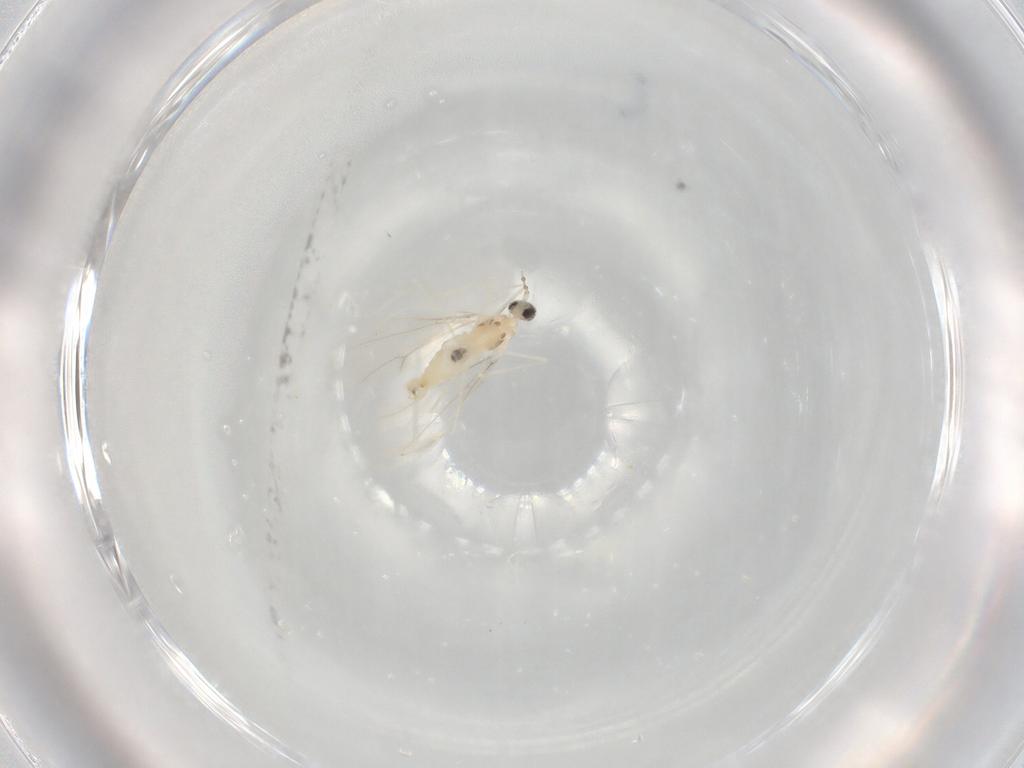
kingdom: Animalia
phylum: Arthropoda
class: Insecta
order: Diptera
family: Cecidomyiidae
